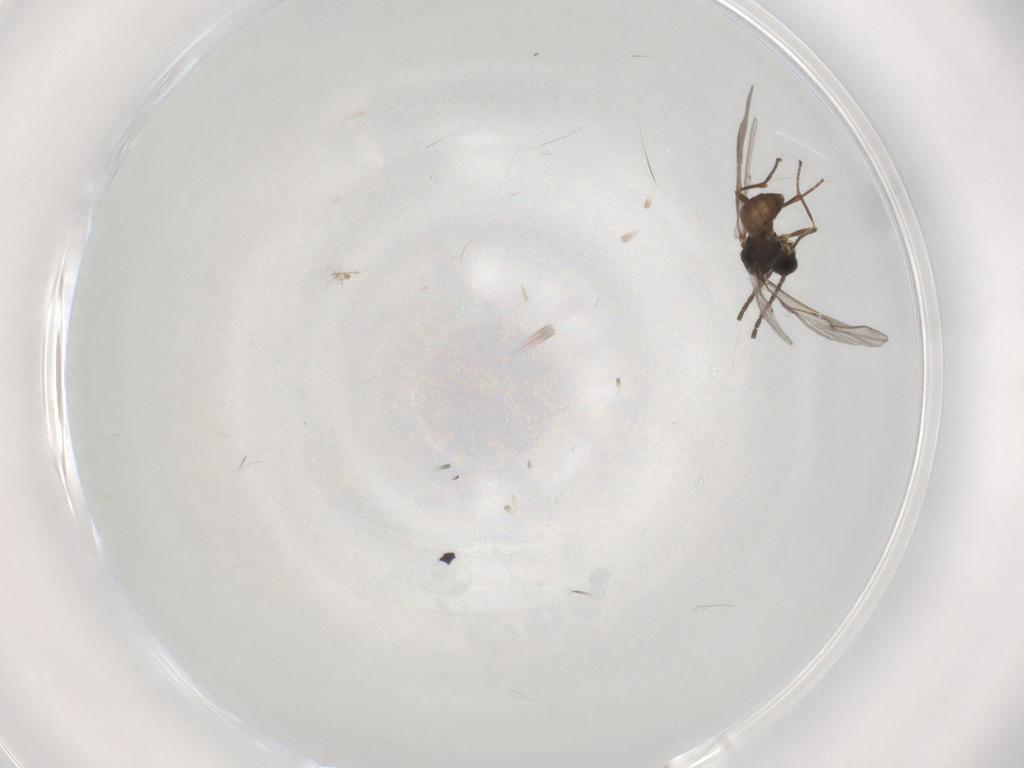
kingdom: Animalia
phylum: Arthropoda
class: Insecta
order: Hymenoptera
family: Braconidae
